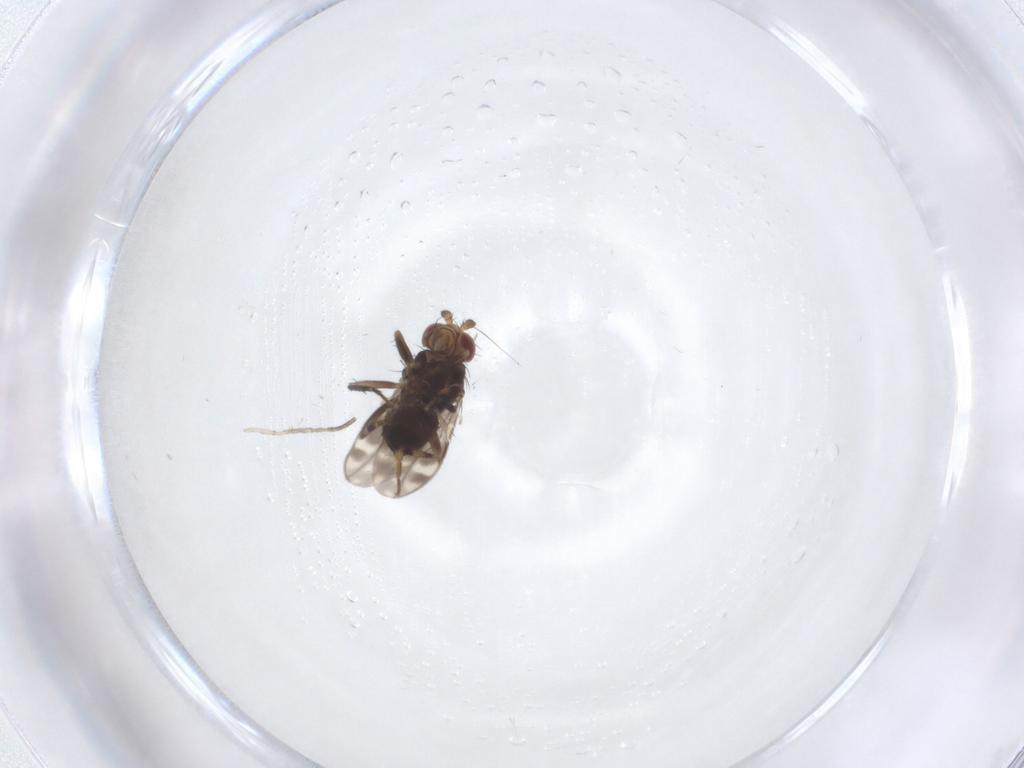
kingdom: Animalia
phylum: Arthropoda
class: Insecta
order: Diptera
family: Sphaeroceridae
